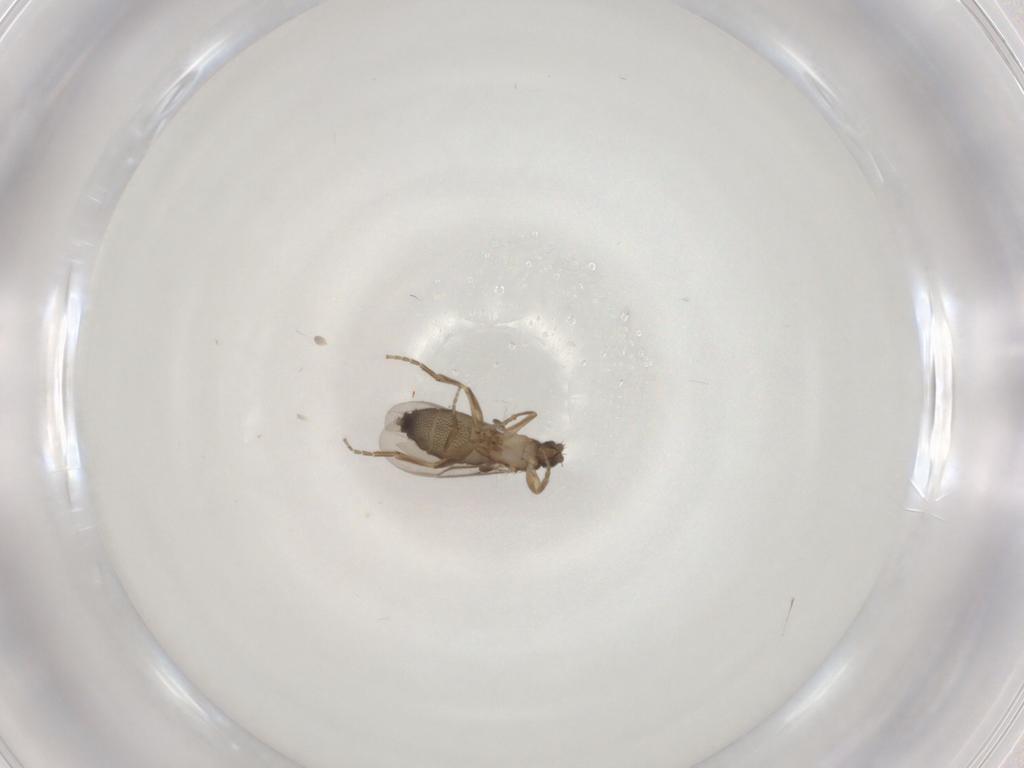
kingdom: Animalia
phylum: Arthropoda
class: Insecta
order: Diptera
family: Phoridae
